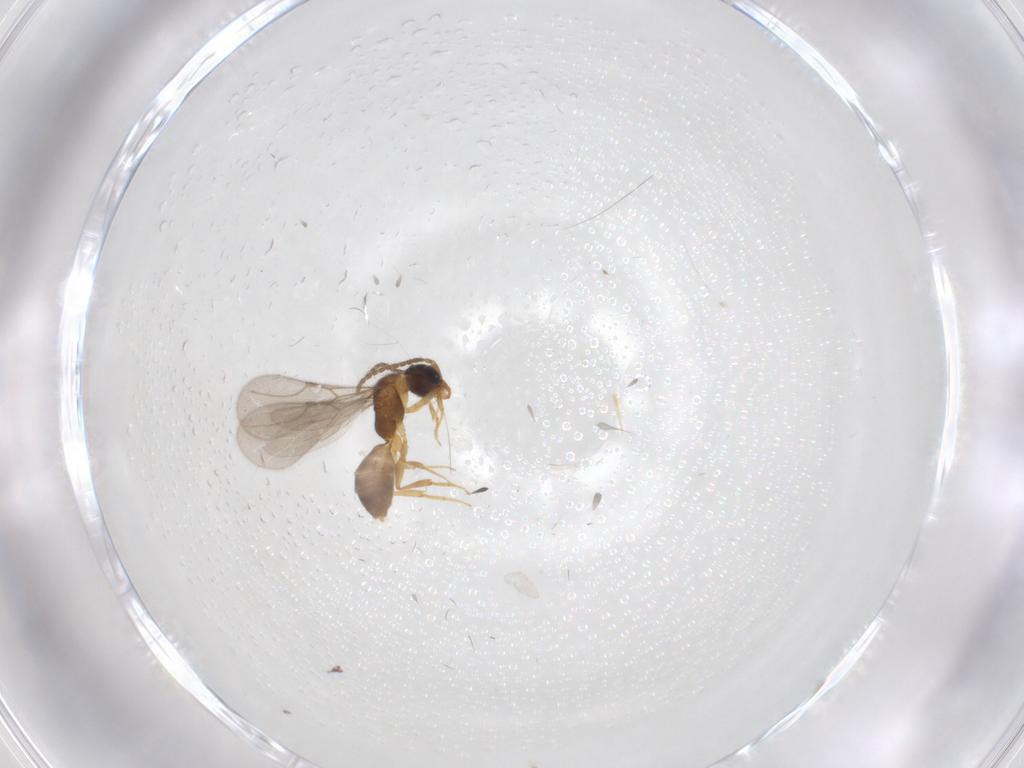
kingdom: Animalia
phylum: Arthropoda
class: Insecta
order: Hymenoptera
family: Bethylidae
